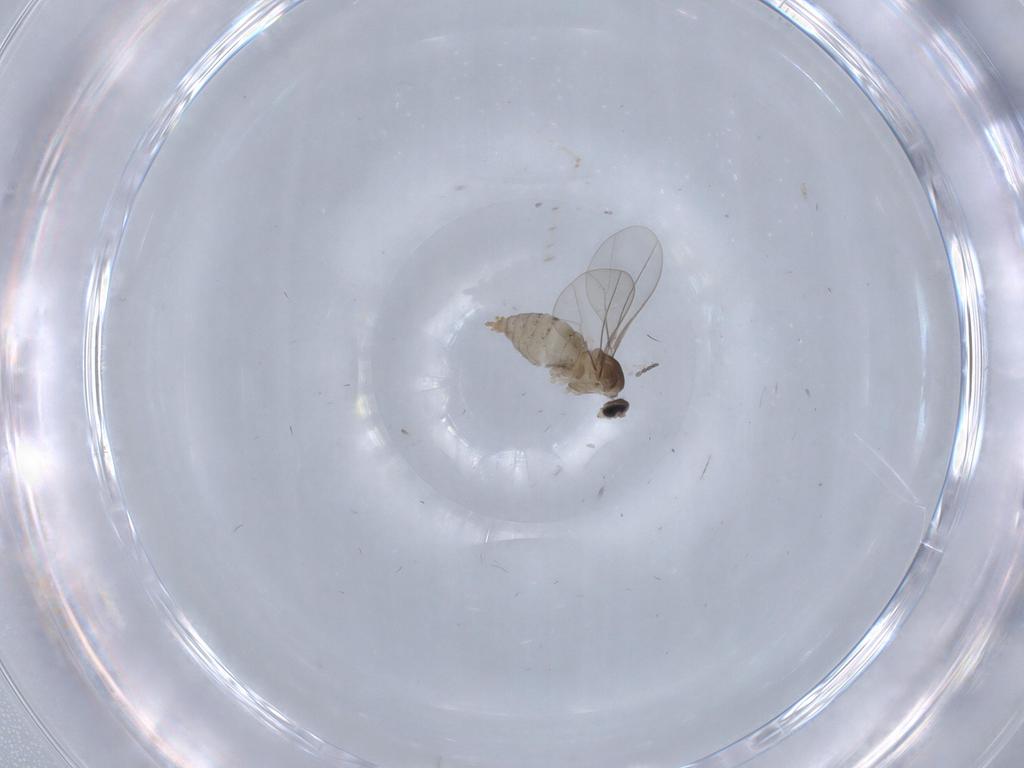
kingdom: Animalia
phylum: Arthropoda
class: Insecta
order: Diptera
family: Cecidomyiidae
